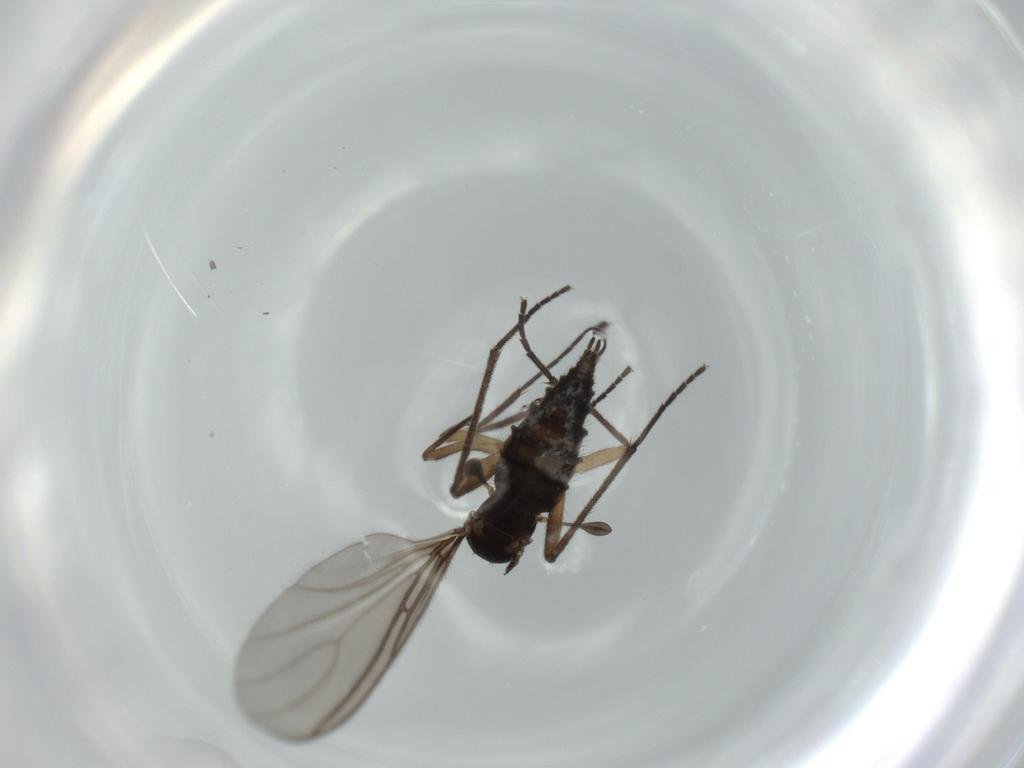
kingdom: Animalia
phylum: Arthropoda
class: Insecta
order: Diptera
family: Sciaridae
